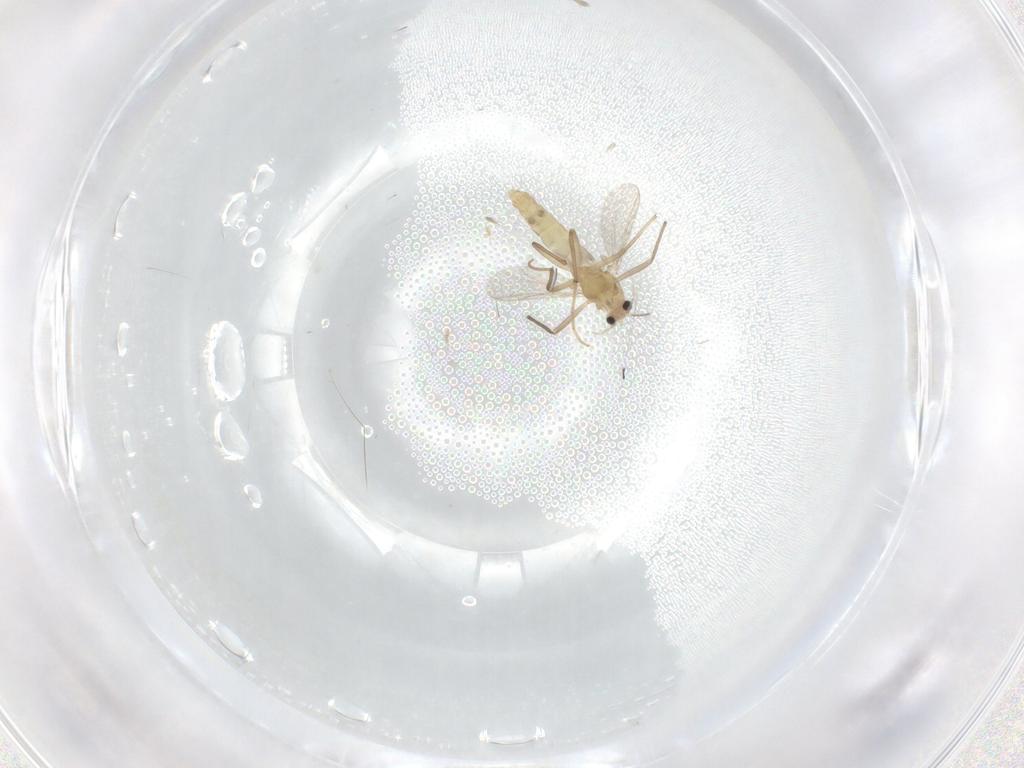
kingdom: Animalia
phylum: Arthropoda
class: Insecta
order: Diptera
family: Chironomidae
